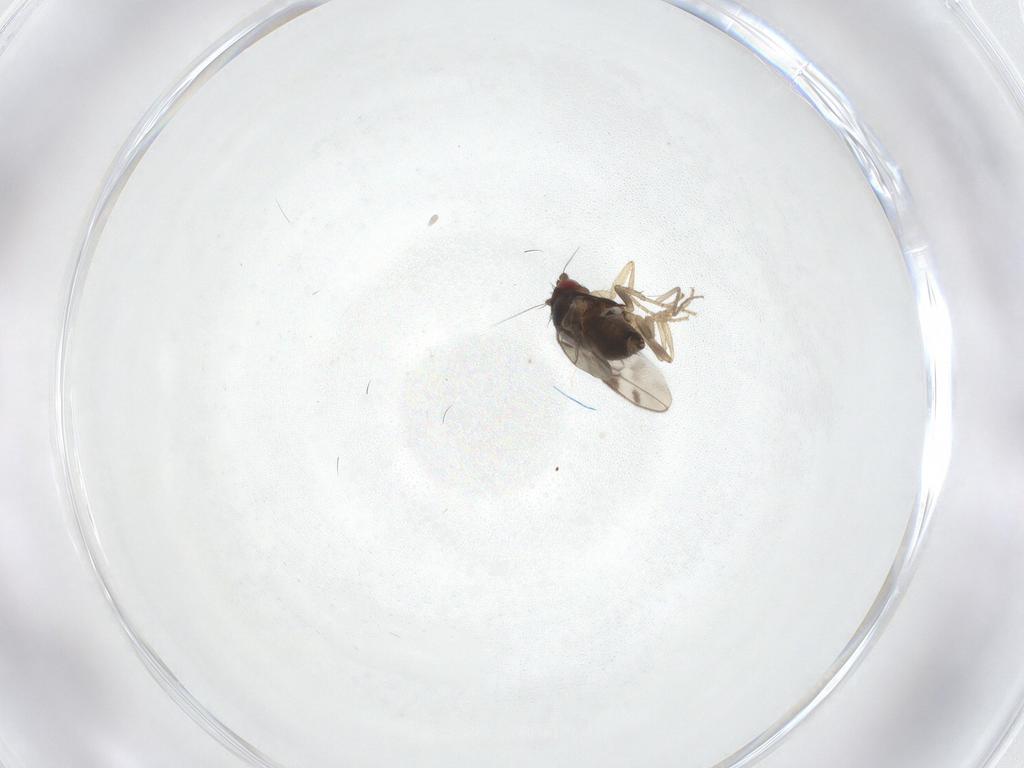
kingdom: Animalia
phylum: Arthropoda
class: Insecta
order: Diptera
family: Sphaeroceridae
